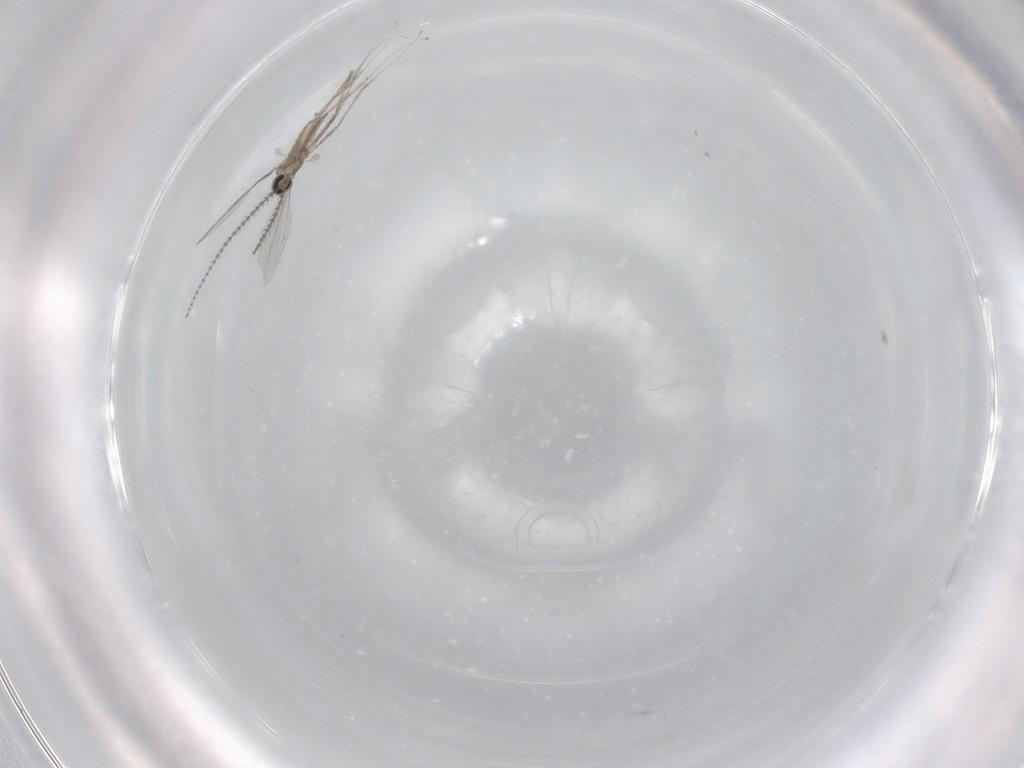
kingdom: Animalia
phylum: Arthropoda
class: Insecta
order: Diptera
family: Cecidomyiidae
